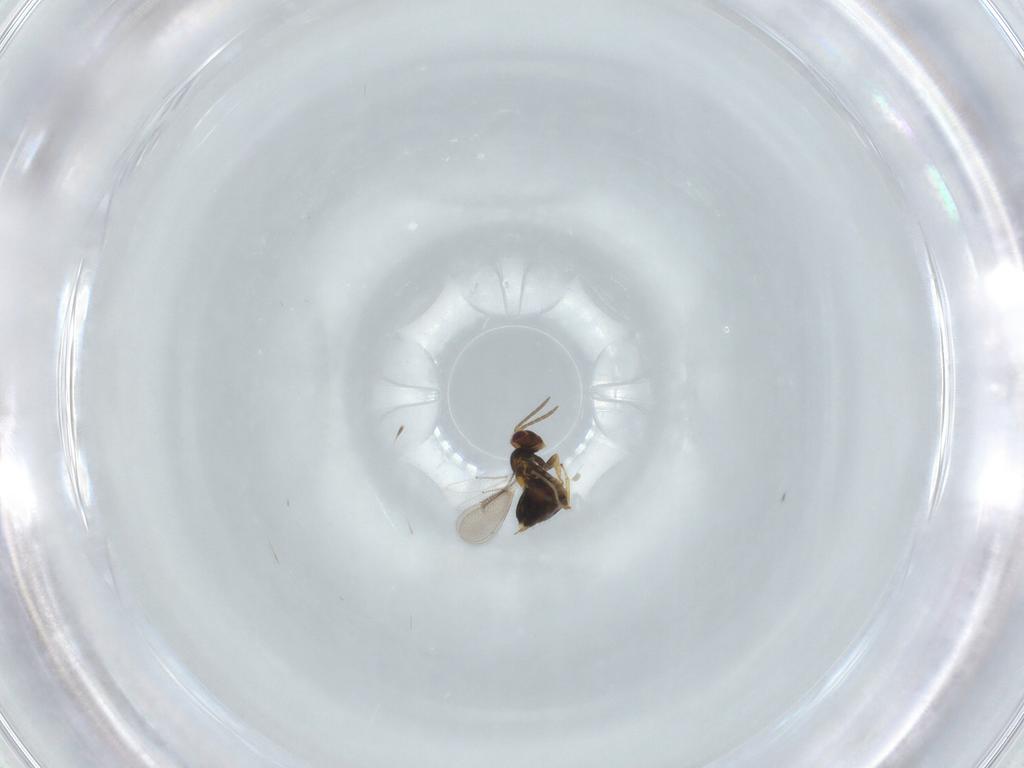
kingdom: Animalia
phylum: Arthropoda
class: Insecta
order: Hymenoptera
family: Formicidae
